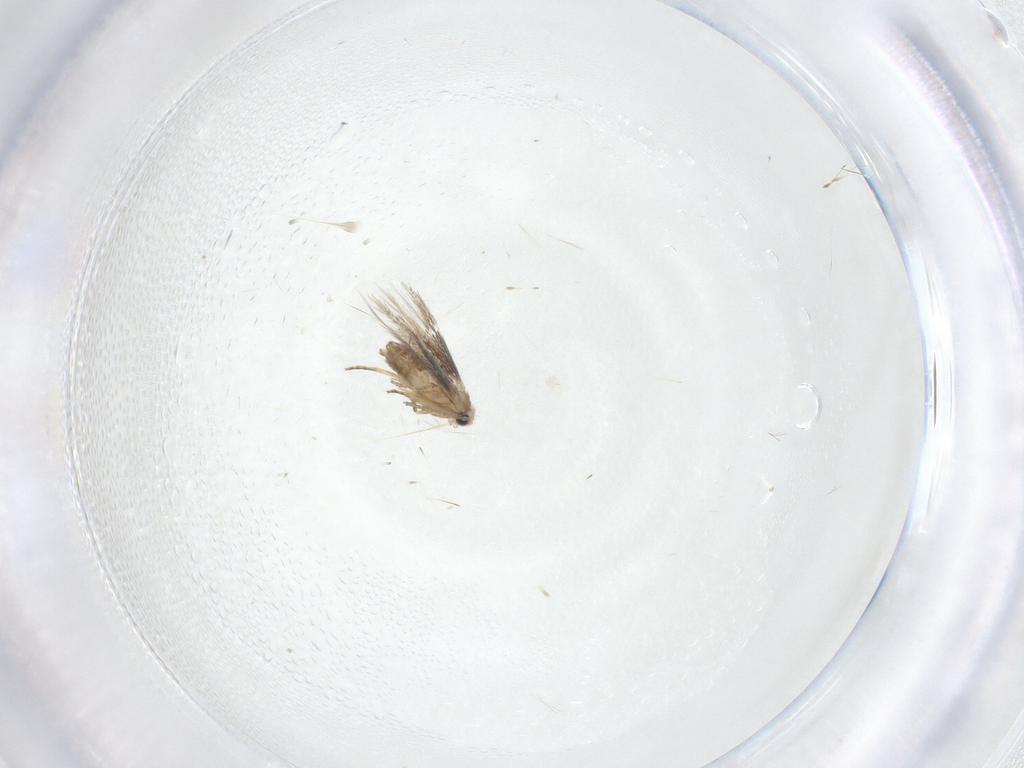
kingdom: Animalia
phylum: Arthropoda
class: Insecta
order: Lepidoptera
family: Nepticulidae
